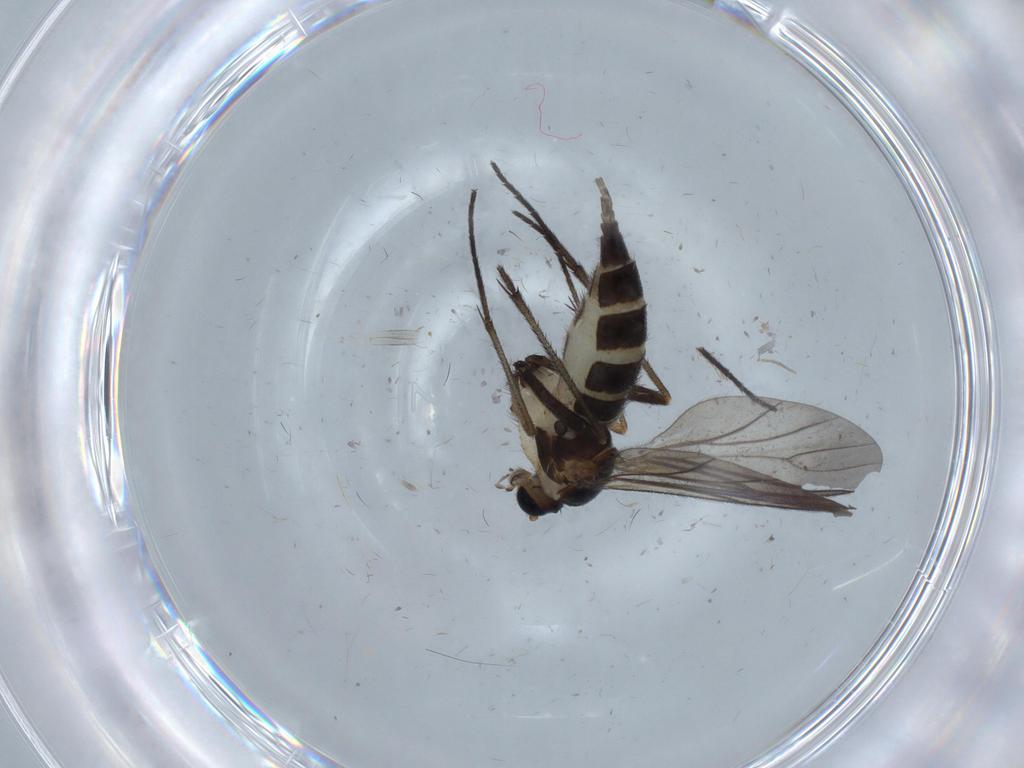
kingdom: Animalia
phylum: Arthropoda
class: Insecta
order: Diptera
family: Sciaridae
